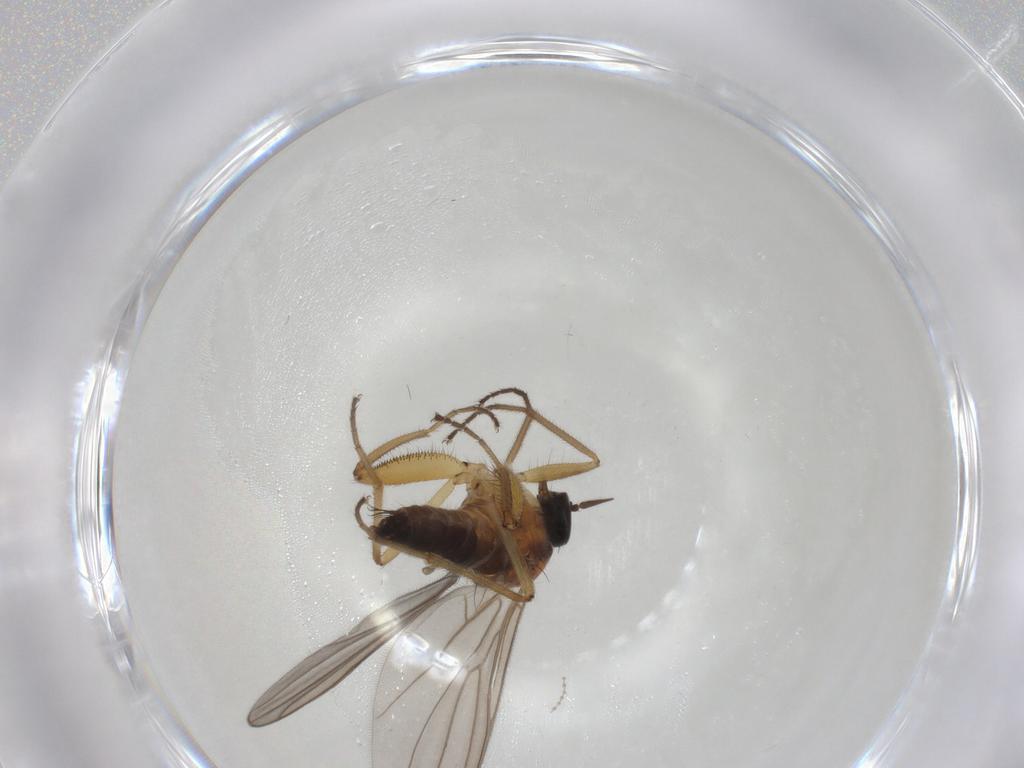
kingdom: Animalia
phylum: Arthropoda
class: Insecta
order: Diptera
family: Hybotidae
